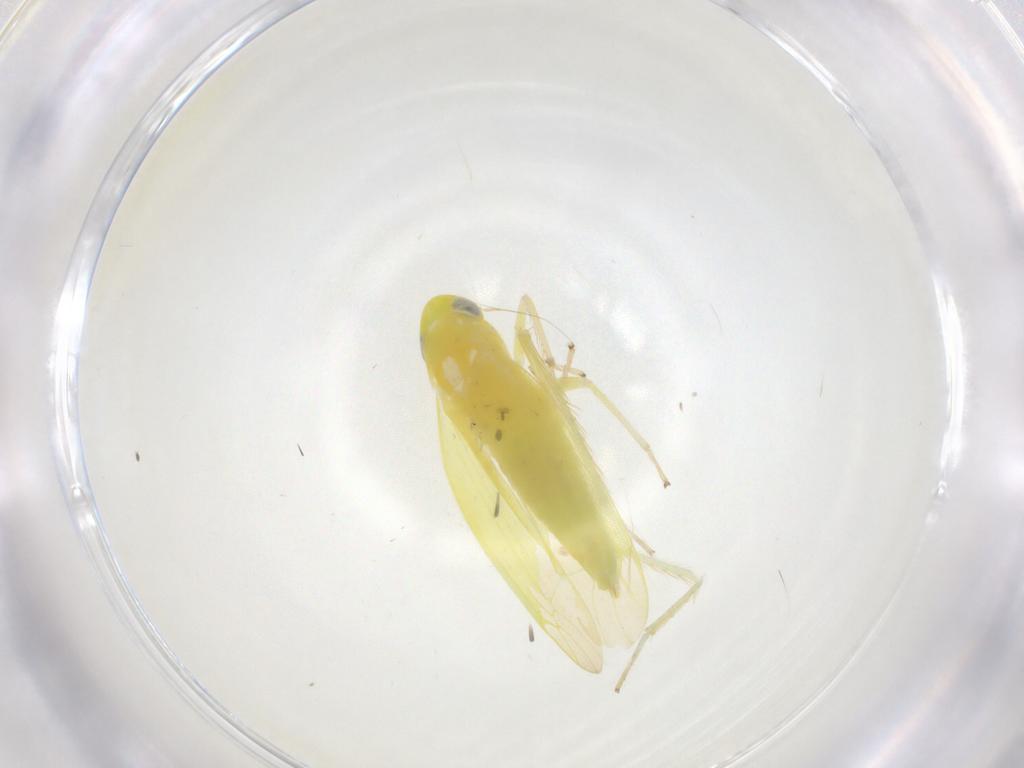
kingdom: Animalia
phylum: Arthropoda
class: Insecta
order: Hemiptera
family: Cicadellidae
